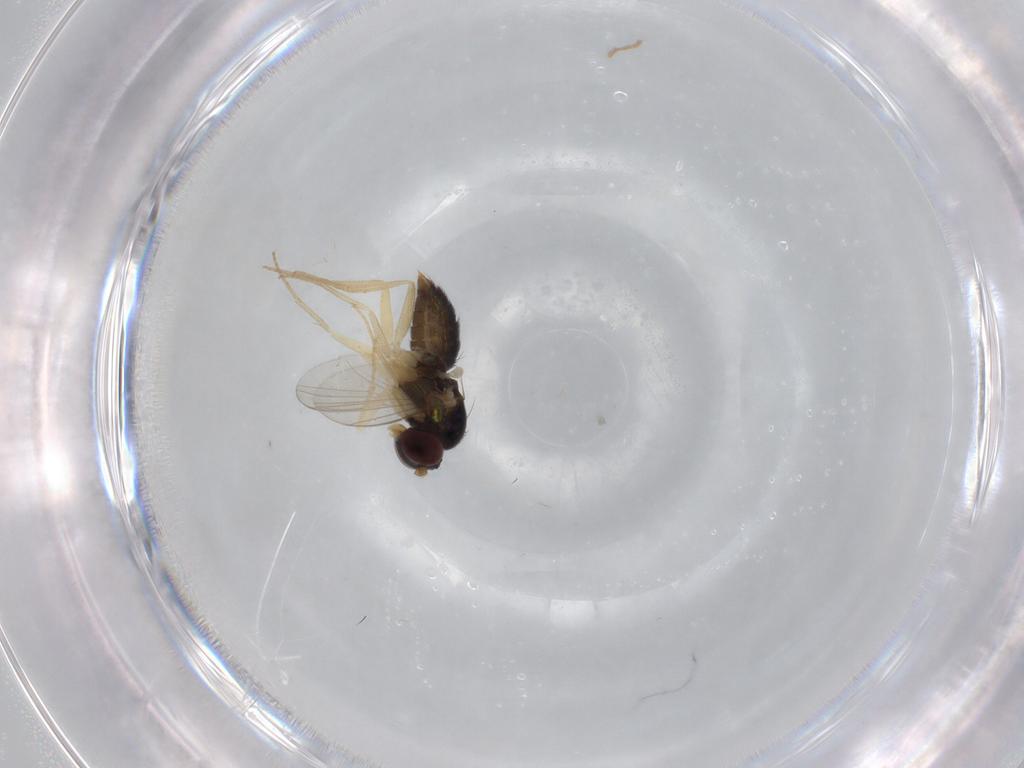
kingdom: Animalia
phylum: Arthropoda
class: Insecta
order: Diptera
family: Dolichopodidae
